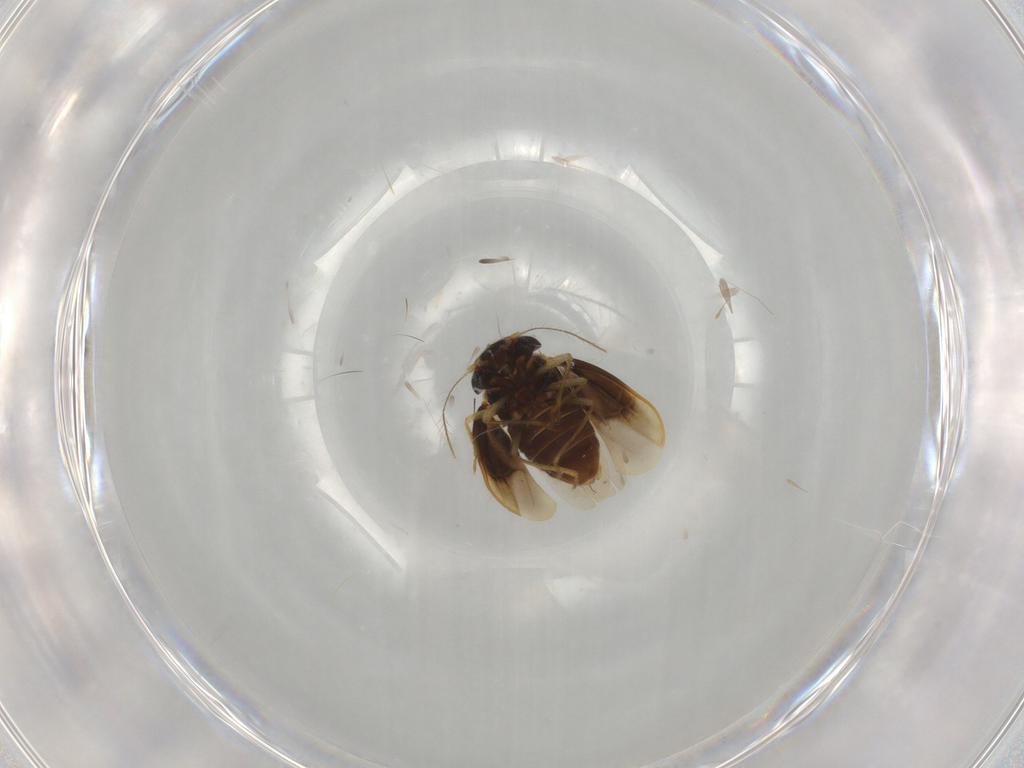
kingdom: Animalia
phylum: Arthropoda
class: Insecta
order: Hemiptera
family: Schizopteridae
